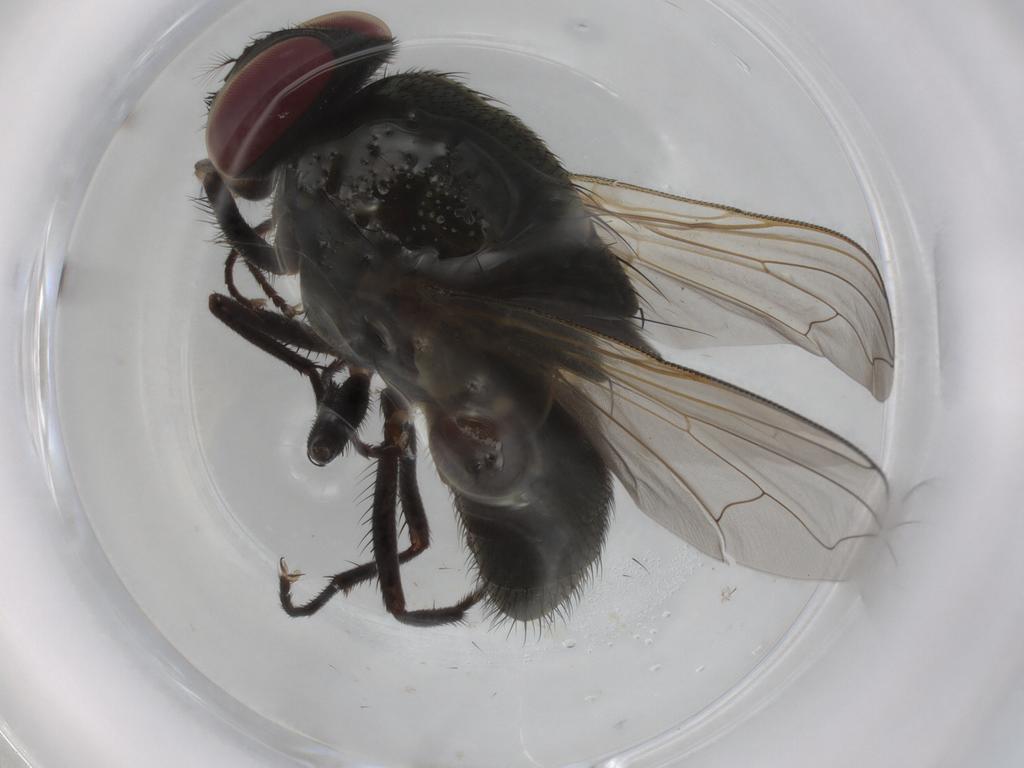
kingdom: Animalia
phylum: Arthropoda
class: Insecta
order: Diptera
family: Muscidae
